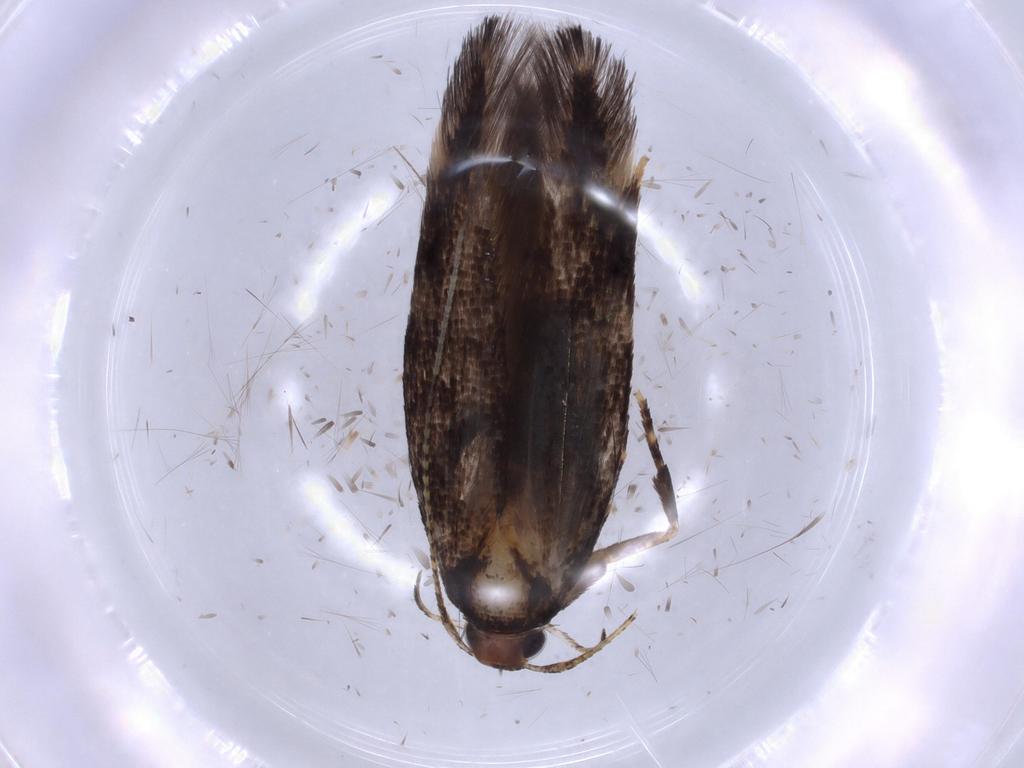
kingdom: Animalia
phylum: Arthropoda
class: Insecta
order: Lepidoptera
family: Cosmopterigidae
